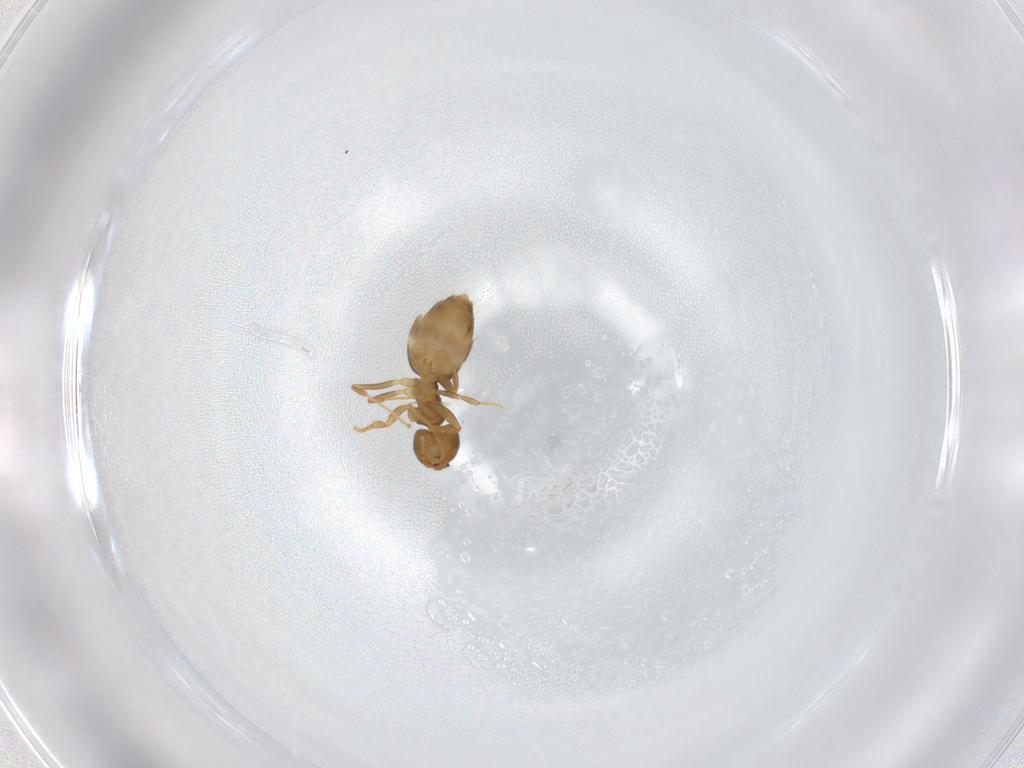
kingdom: Animalia
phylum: Arthropoda
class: Insecta
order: Hymenoptera
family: Formicidae
